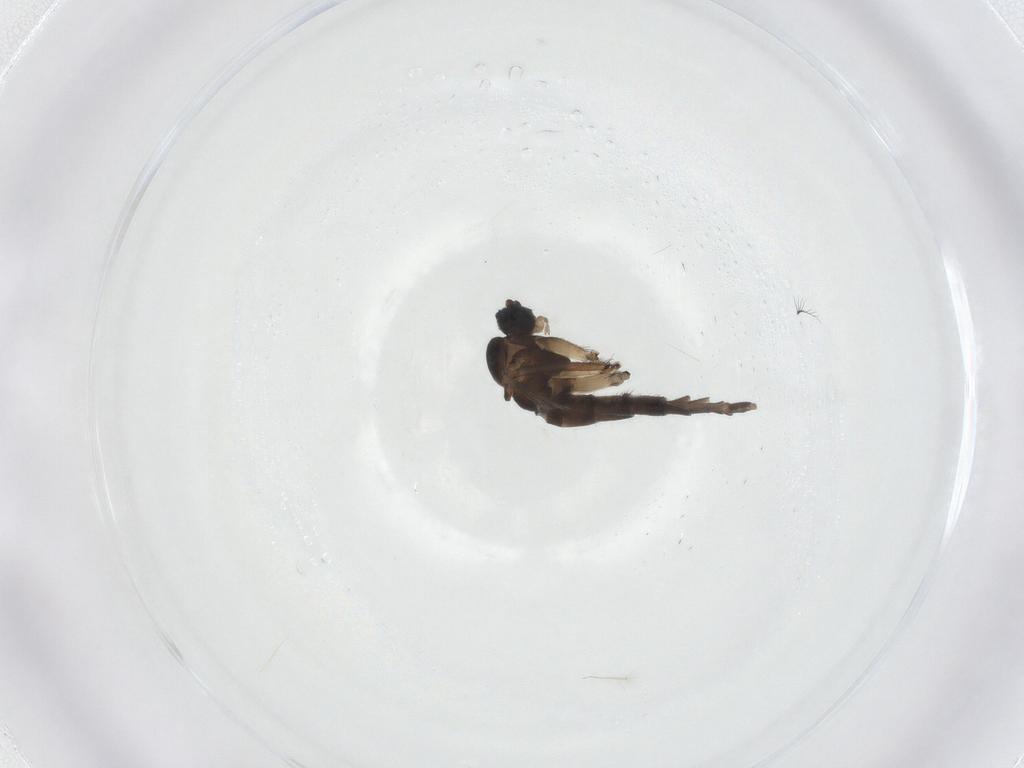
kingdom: Animalia
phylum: Arthropoda
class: Insecta
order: Diptera
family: Sciaridae
